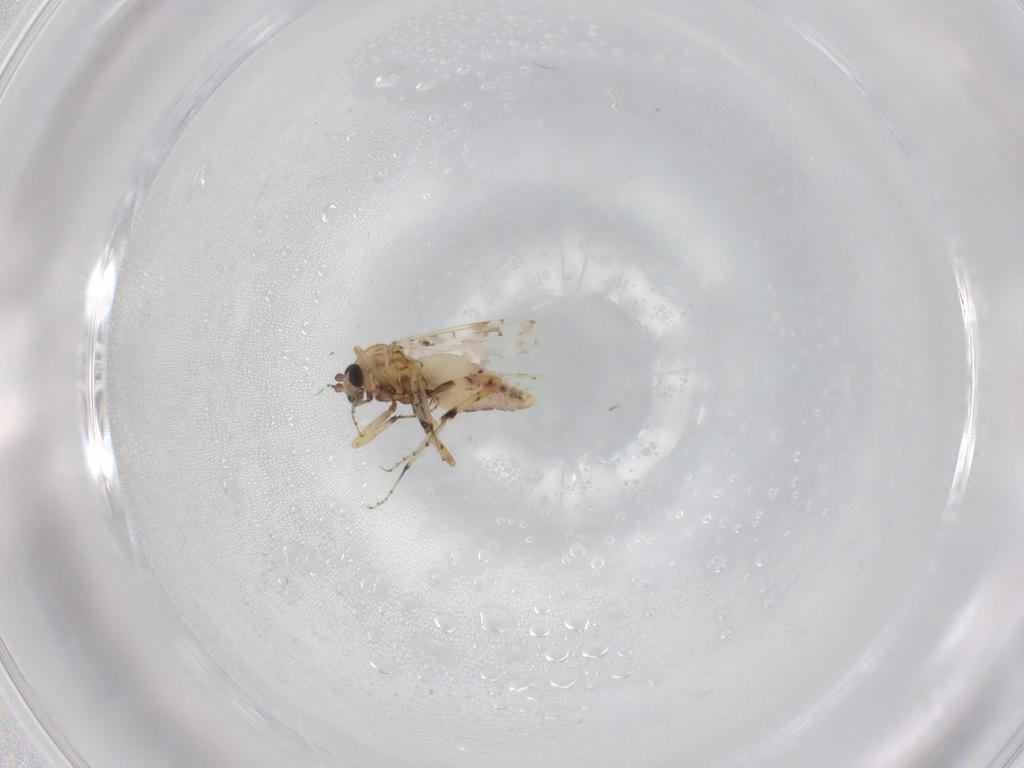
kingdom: Animalia
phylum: Arthropoda
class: Insecta
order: Diptera
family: Ceratopogonidae
